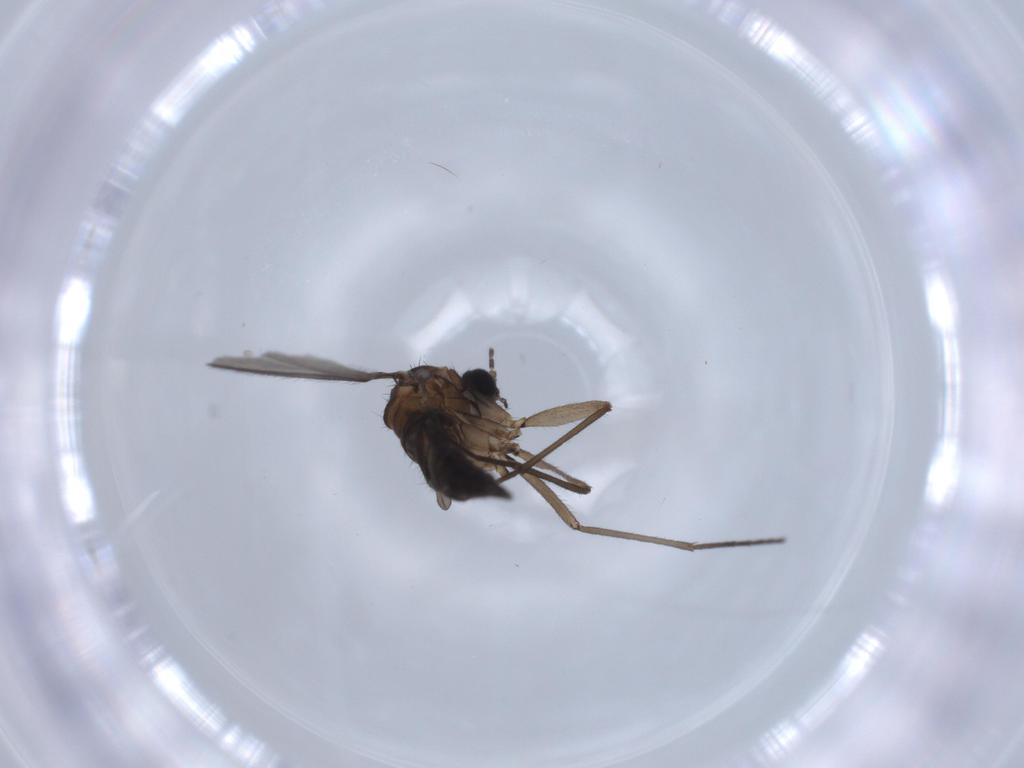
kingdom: Animalia
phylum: Arthropoda
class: Insecta
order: Diptera
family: Sciaridae
